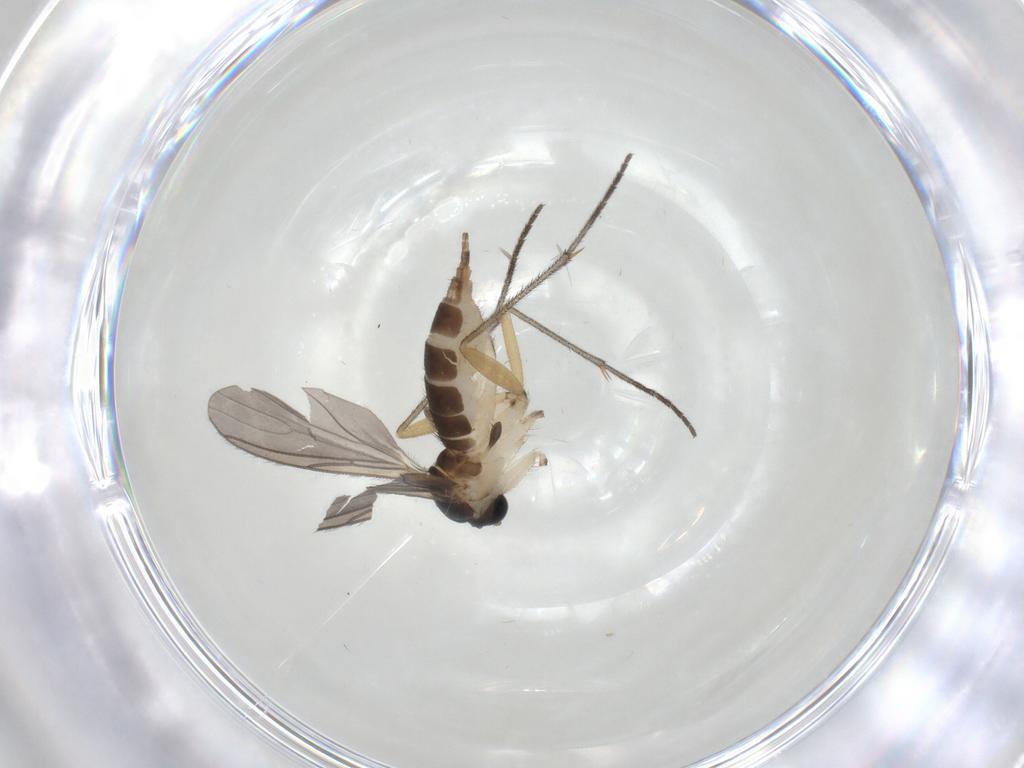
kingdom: Animalia
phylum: Arthropoda
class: Insecta
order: Diptera
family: Sciaridae
